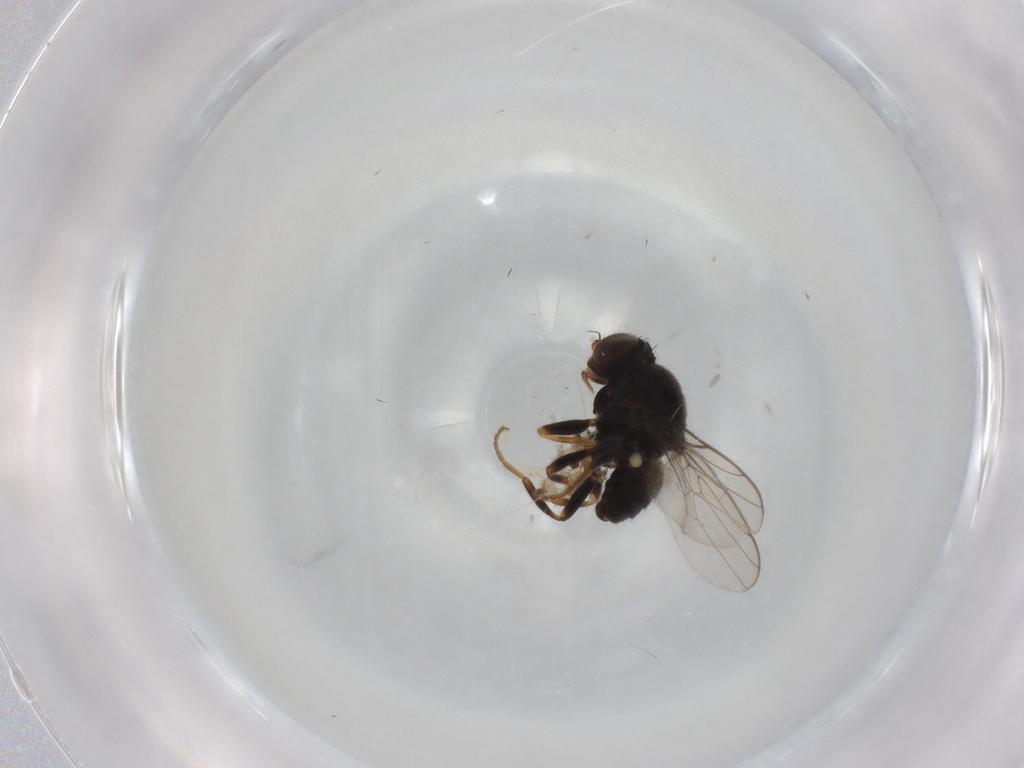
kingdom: Animalia
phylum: Arthropoda
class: Insecta
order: Diptera
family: Chloropidae
